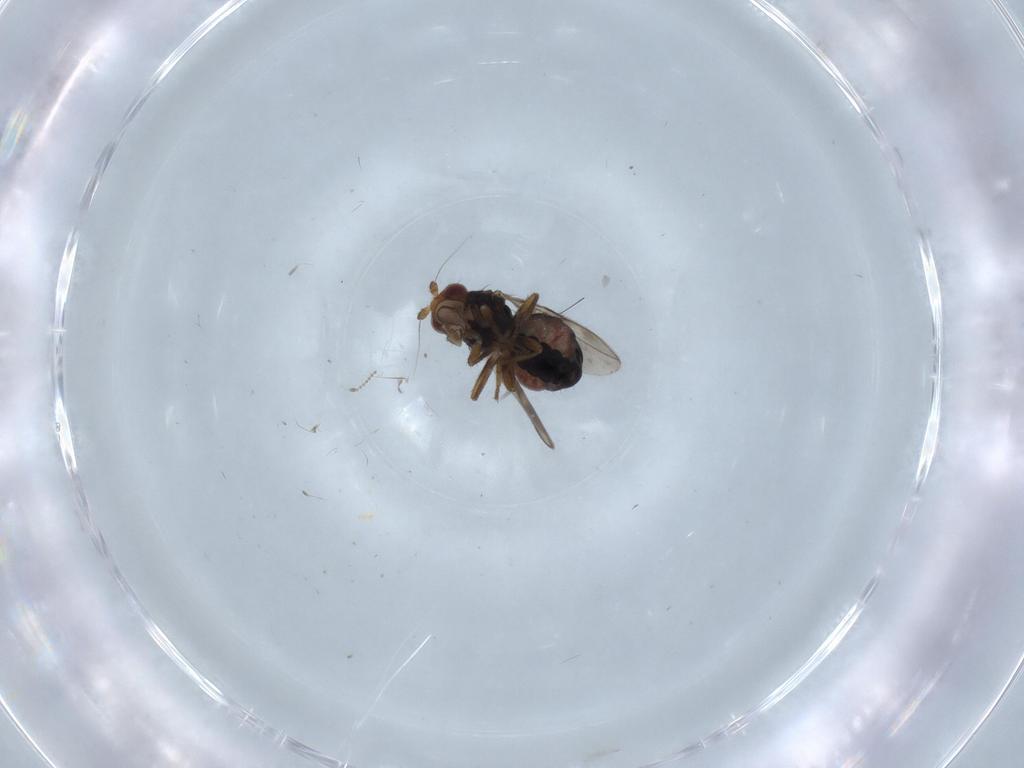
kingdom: Animalia
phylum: Arthropoda
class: Insecta
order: Diptera
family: Sphaeroceridae
